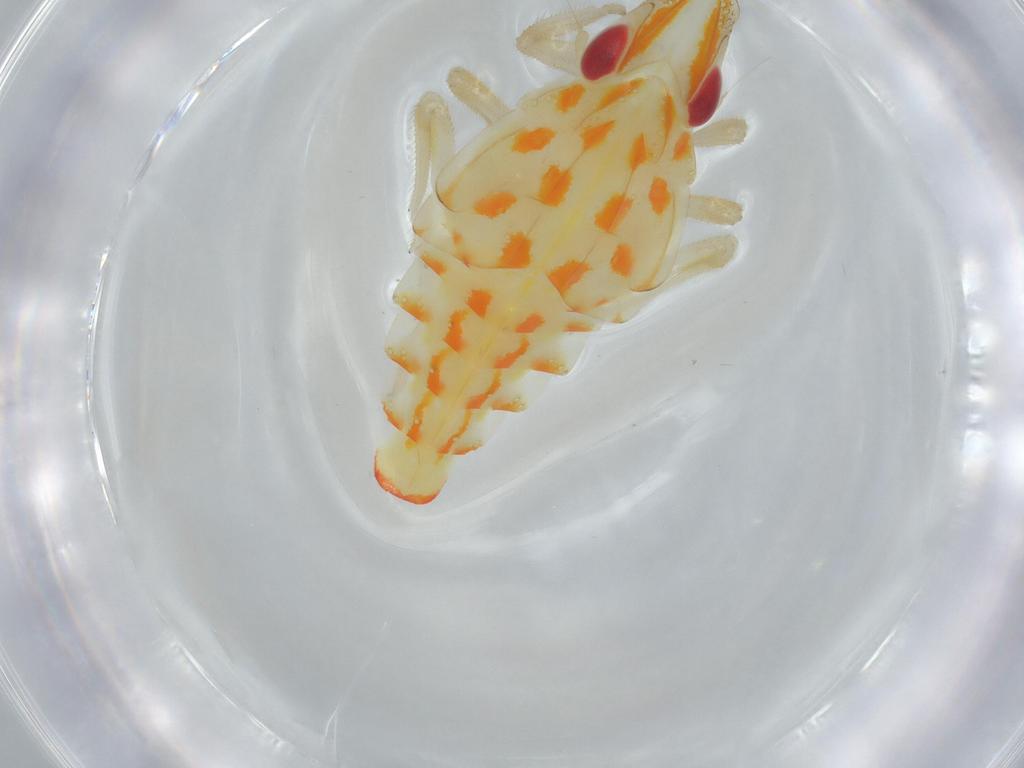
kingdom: Animalia
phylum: Arthropoda
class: Insecta
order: Hemiptera
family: Tropiduchidae
